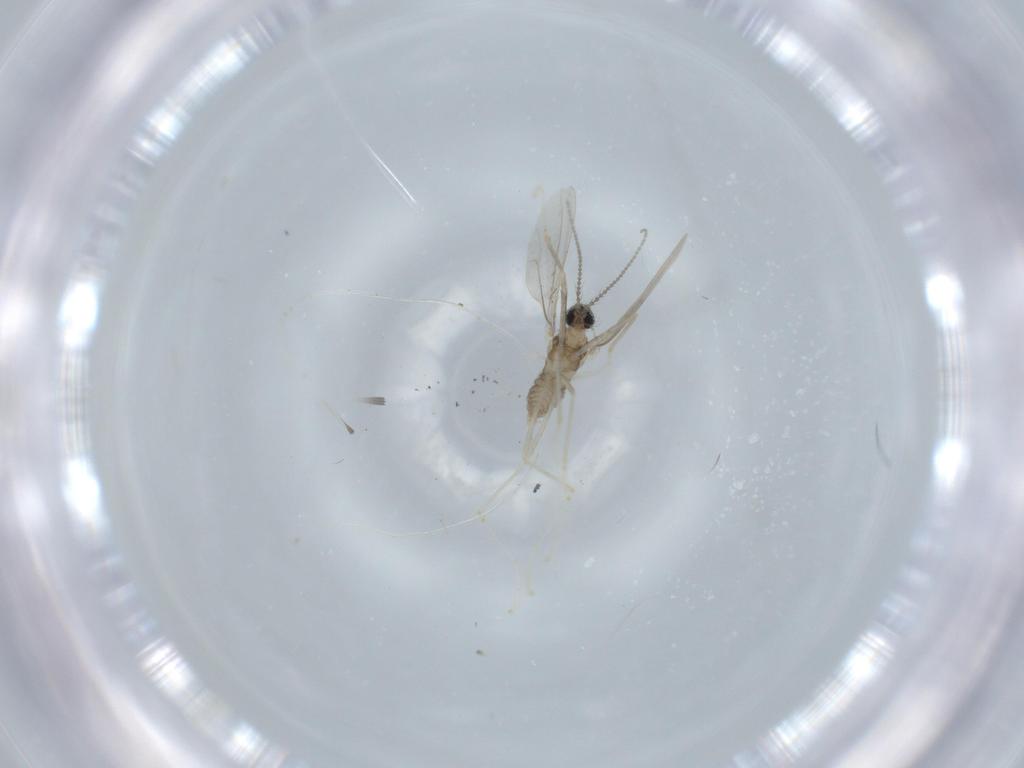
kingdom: Animalia
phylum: Arthropoda
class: Insecta
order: Diptera
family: Cecidomyiidae
